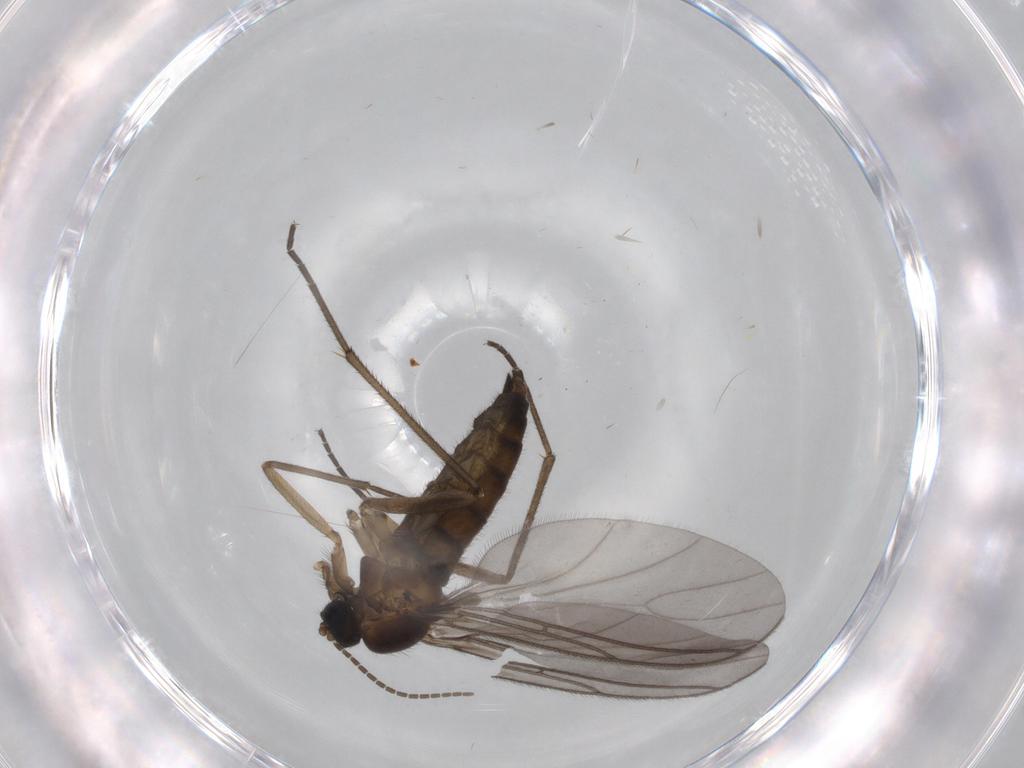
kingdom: Animalia
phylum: Arthropoda
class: Insecta
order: Diptera
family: Sciaridae
